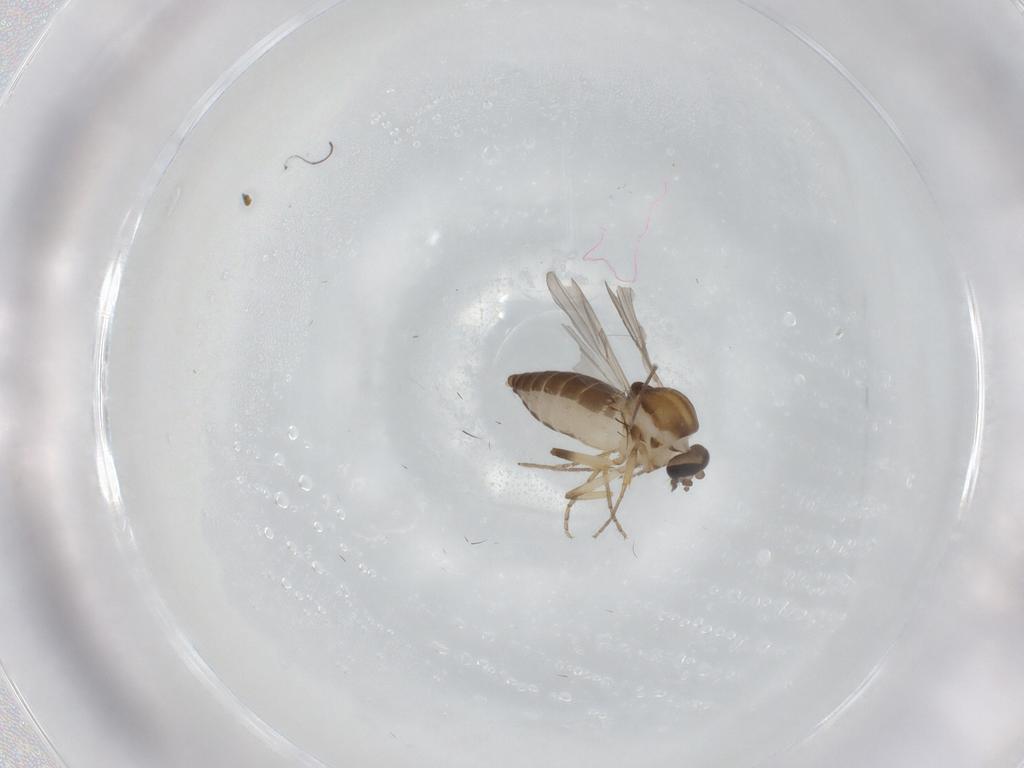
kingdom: Animalia
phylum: Arthropoda
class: Insecta
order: Diptera
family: Ceratopogonidae
